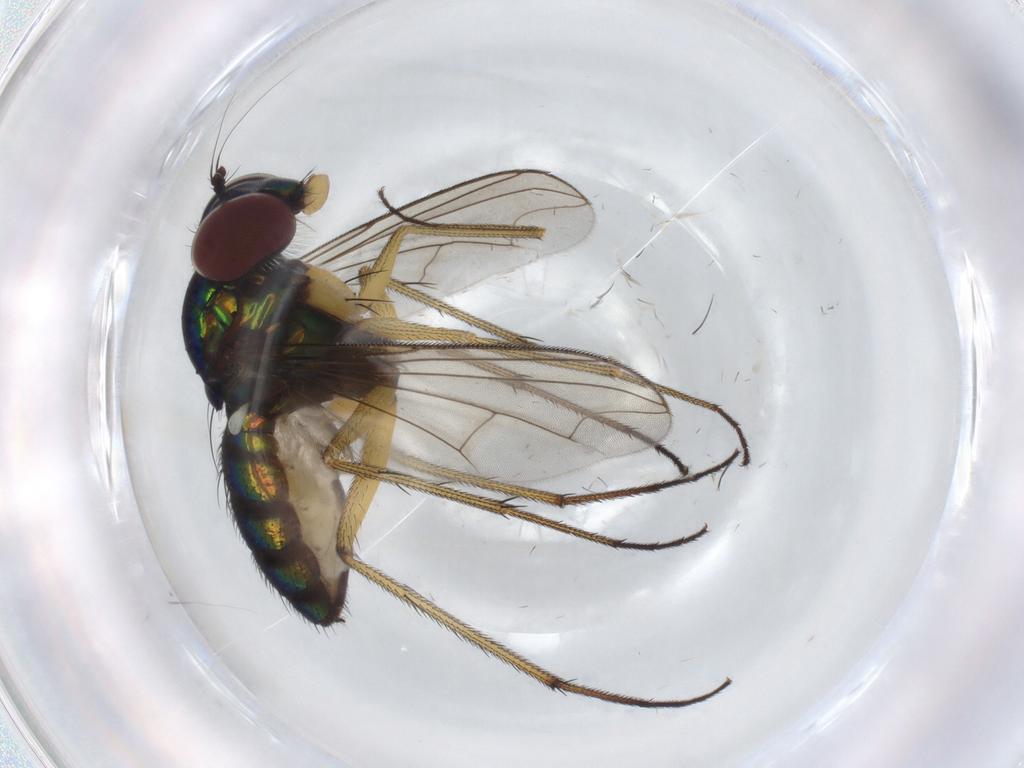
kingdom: Animalia
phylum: Arthropoda
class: Insecta
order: Diptera
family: Dolichopodidae
